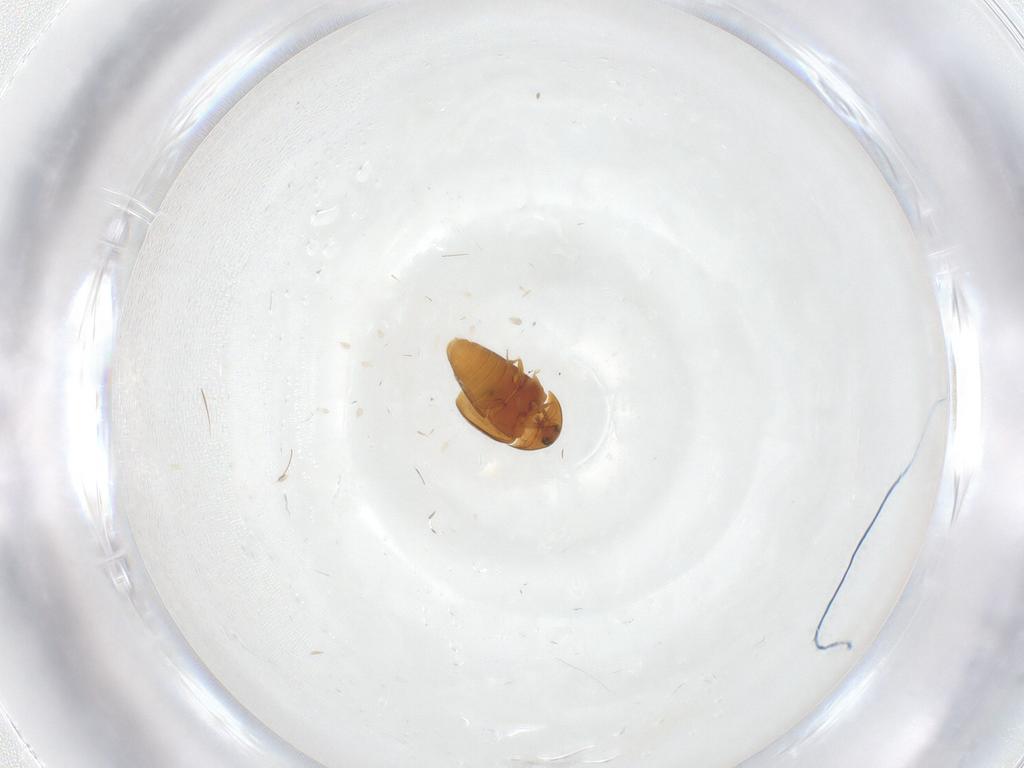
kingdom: Animalia
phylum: Arthropoda
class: Insecta
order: Coleoptera
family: Corylophidae
